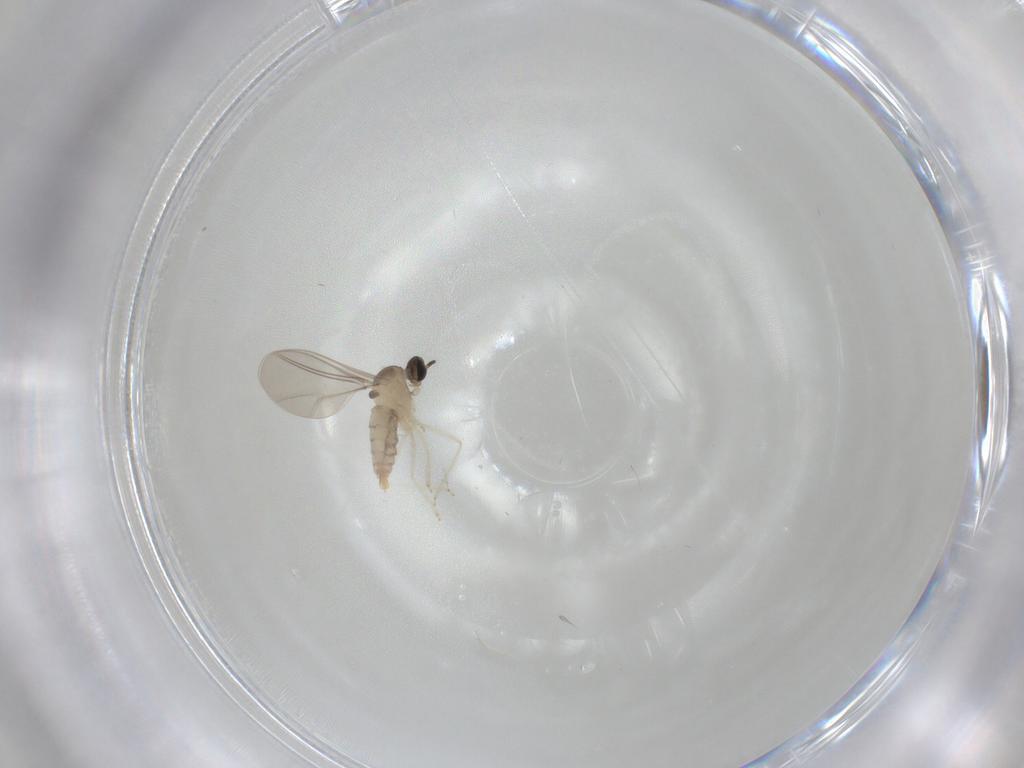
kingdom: Animalia
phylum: Arthropoda
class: Insecta
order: Diptera
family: Cecidomyiidae
